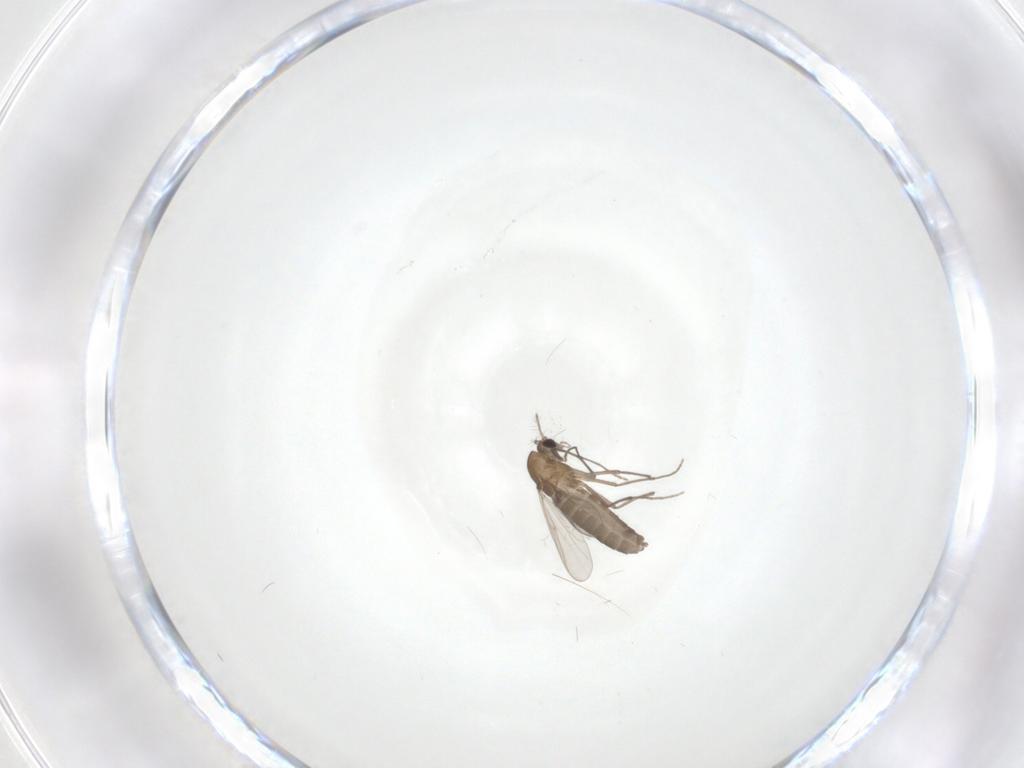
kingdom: Animalia
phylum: Arthropoda
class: Insecta
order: Diptera
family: Chironomidae
